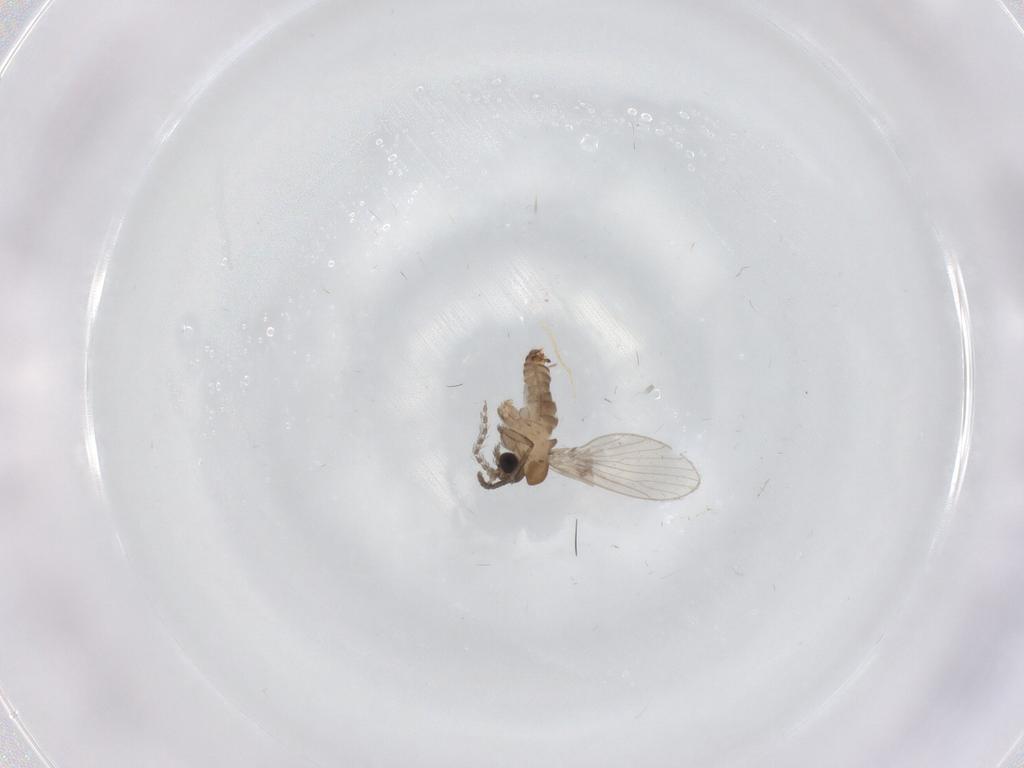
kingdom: Animalia
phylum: Arthropoda
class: Insecta
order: Diptera
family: Psychodidae
